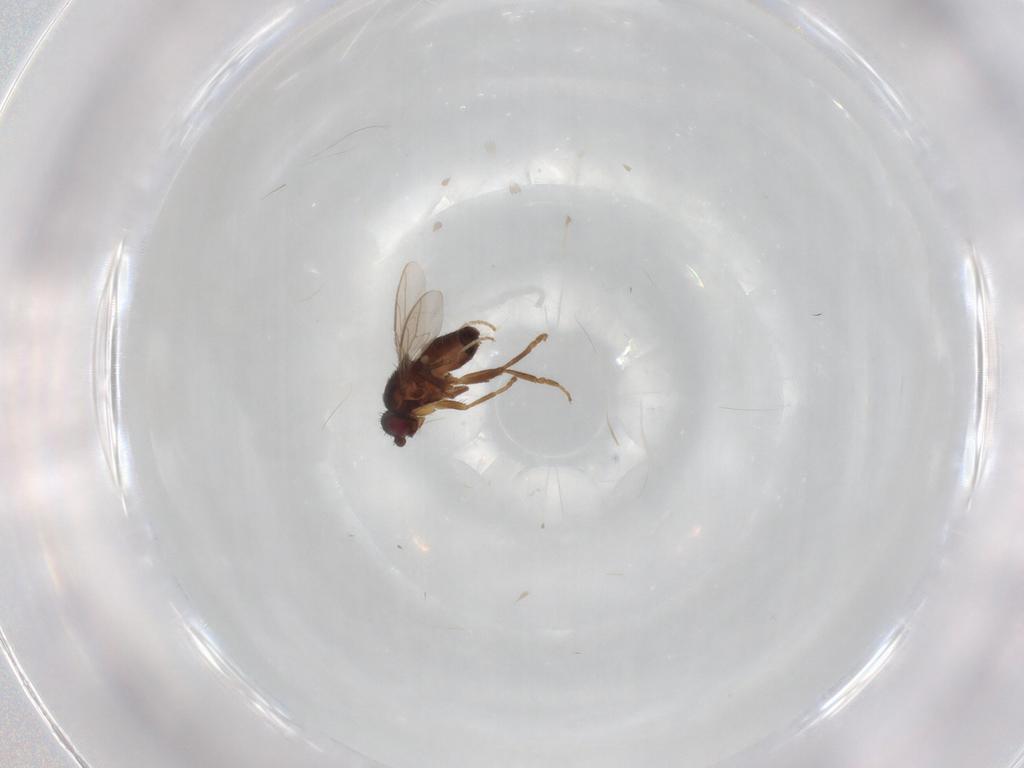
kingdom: Animalia
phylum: Arthropoda
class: Insecta
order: Diptera
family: Sphaeroceridae
